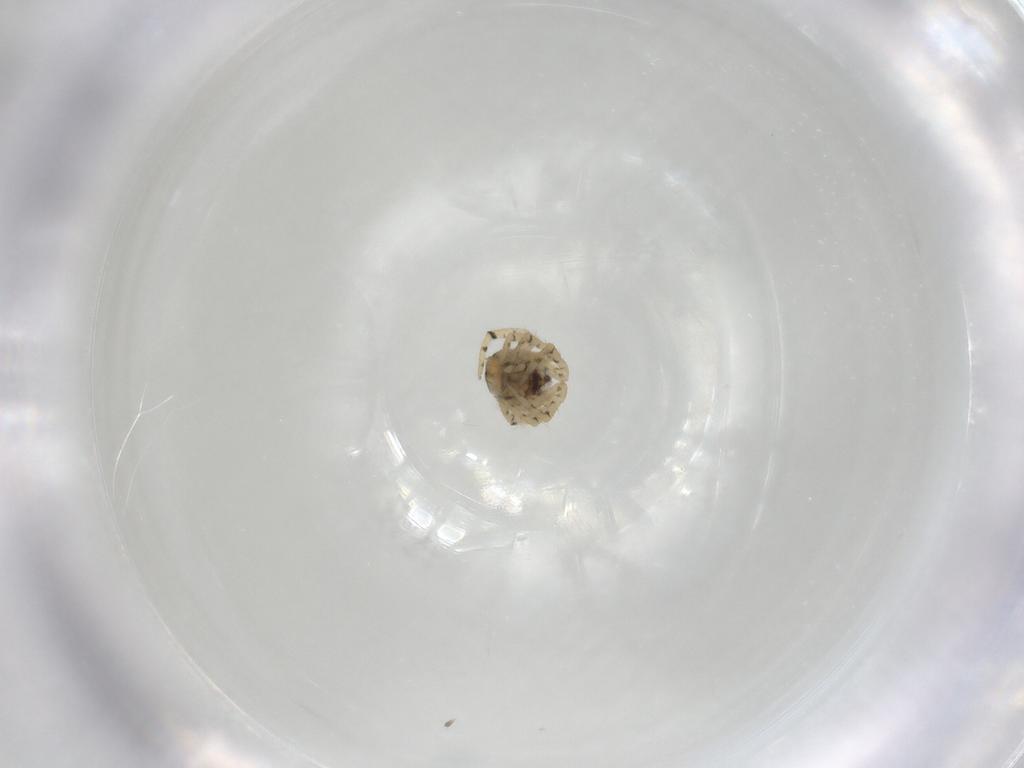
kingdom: Animalia
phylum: Arthropoda
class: Arachnida
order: Araneae
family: Theridiidae
